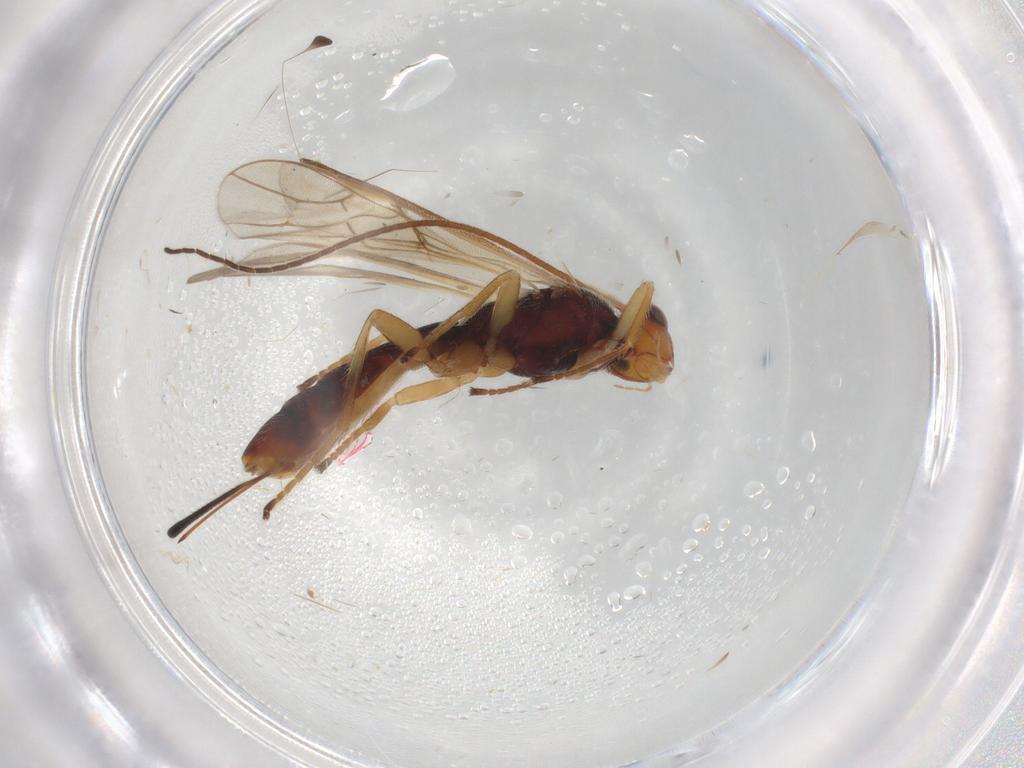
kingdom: Animalia
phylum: Arthropoda
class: Insecta
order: Hymenoptera
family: Braconidae
